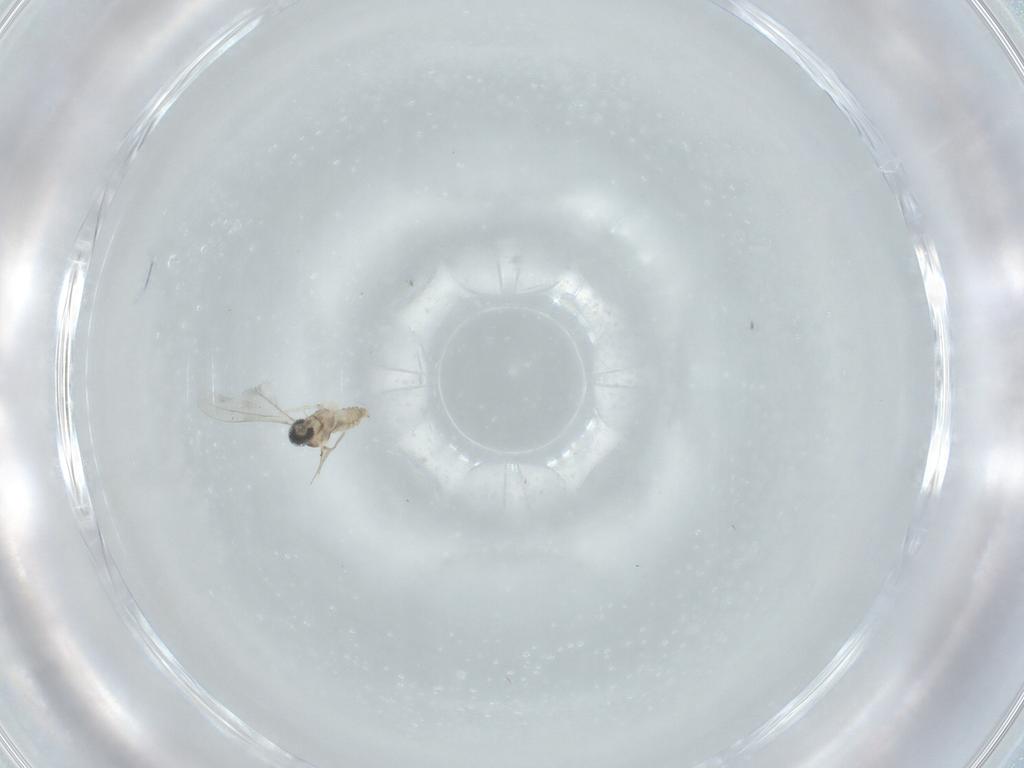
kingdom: Animalia
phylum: Arthropoda
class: Insecta
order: Diptera
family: Cecidomyiidae
